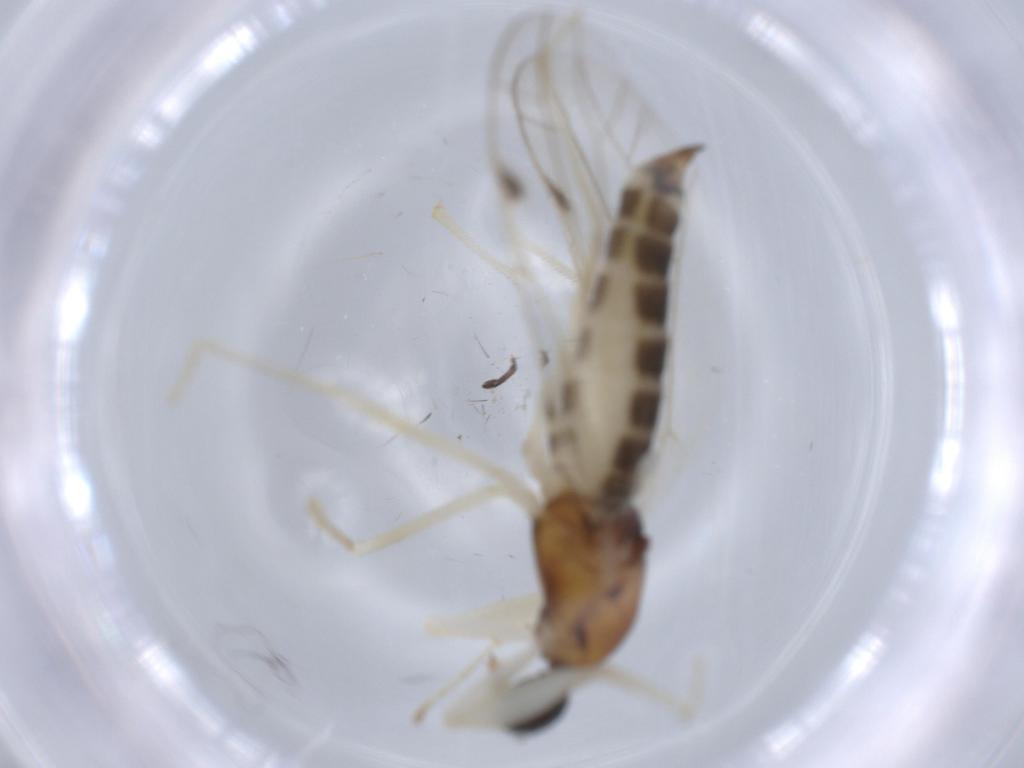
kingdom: Animalia
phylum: Arthropoda
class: Insecta
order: Diptera
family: Empididae
